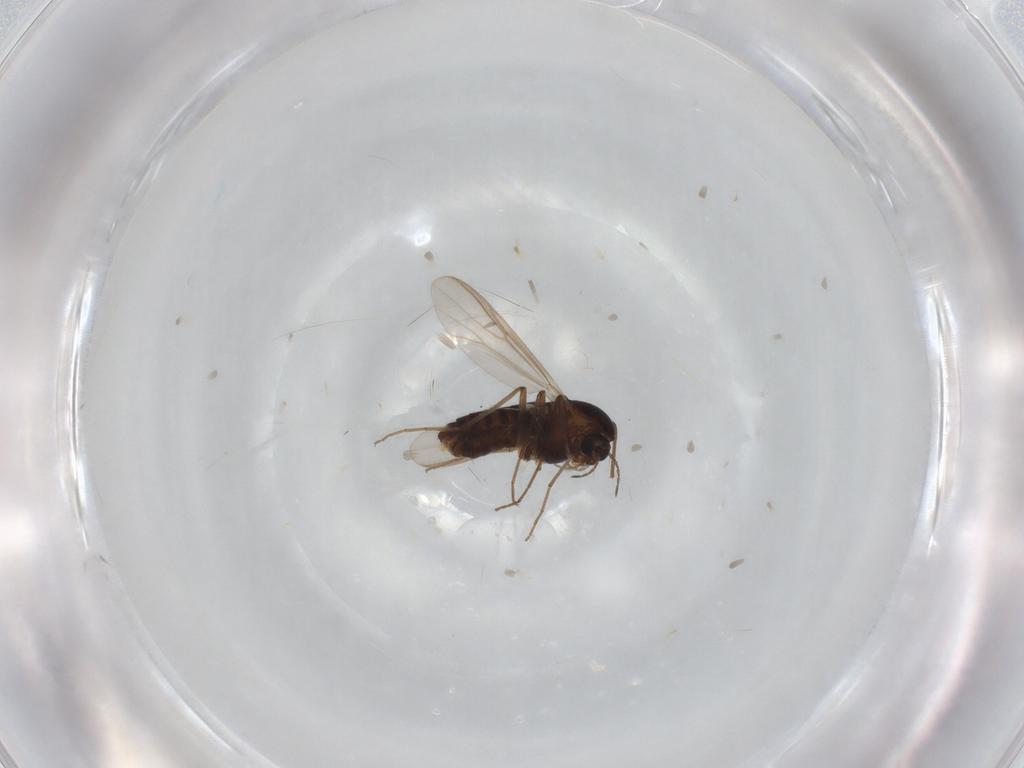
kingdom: Animalia
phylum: Arthropoda
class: Insecta
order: Diptera
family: Chironomidae
